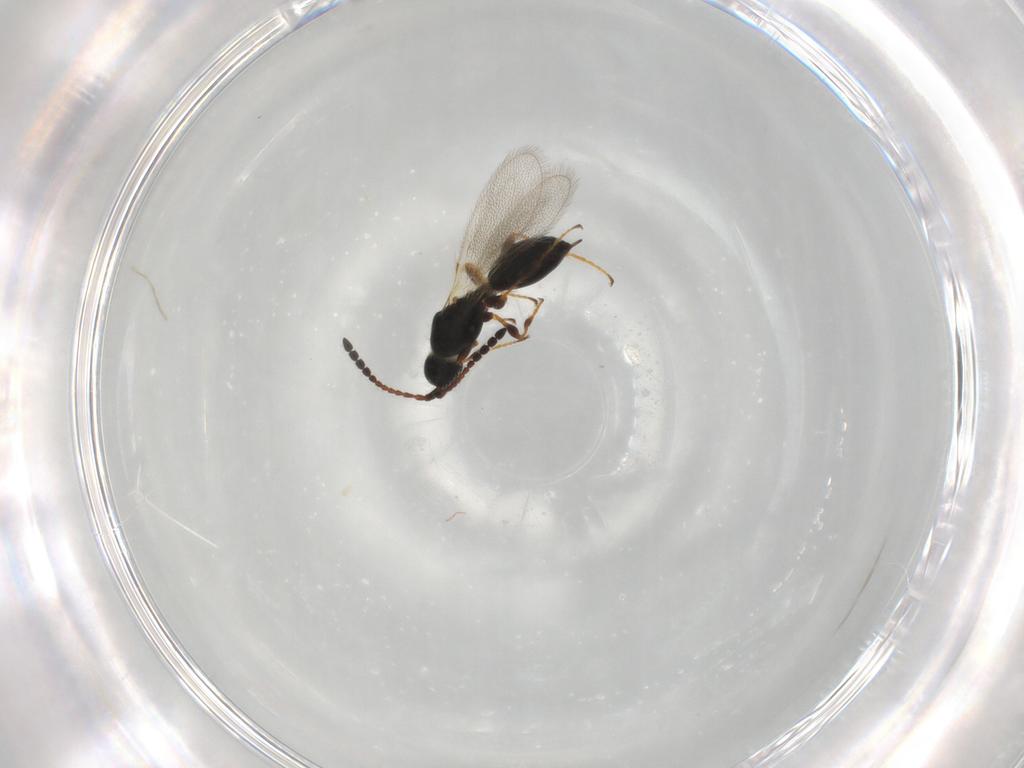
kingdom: Animalia
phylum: Arthropoda
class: Insecta
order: Hymenoptera
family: Diapriidae
